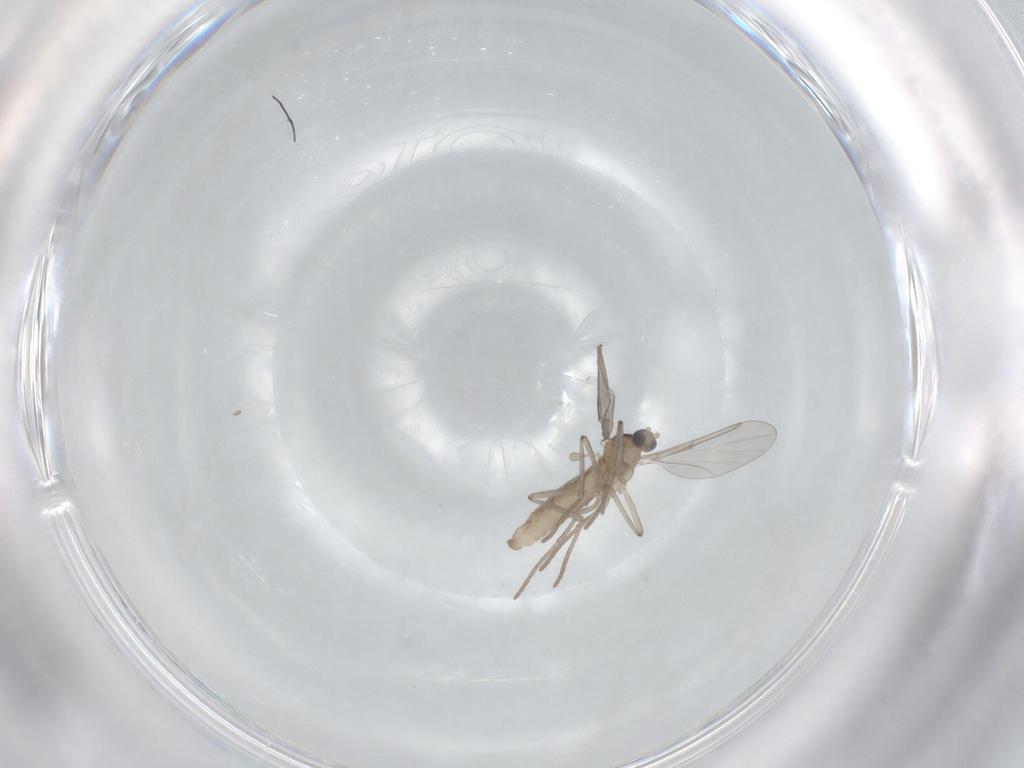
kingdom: Animalia
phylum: Arthropoda
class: Insecta
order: Diptera
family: Cecidomyiidae
